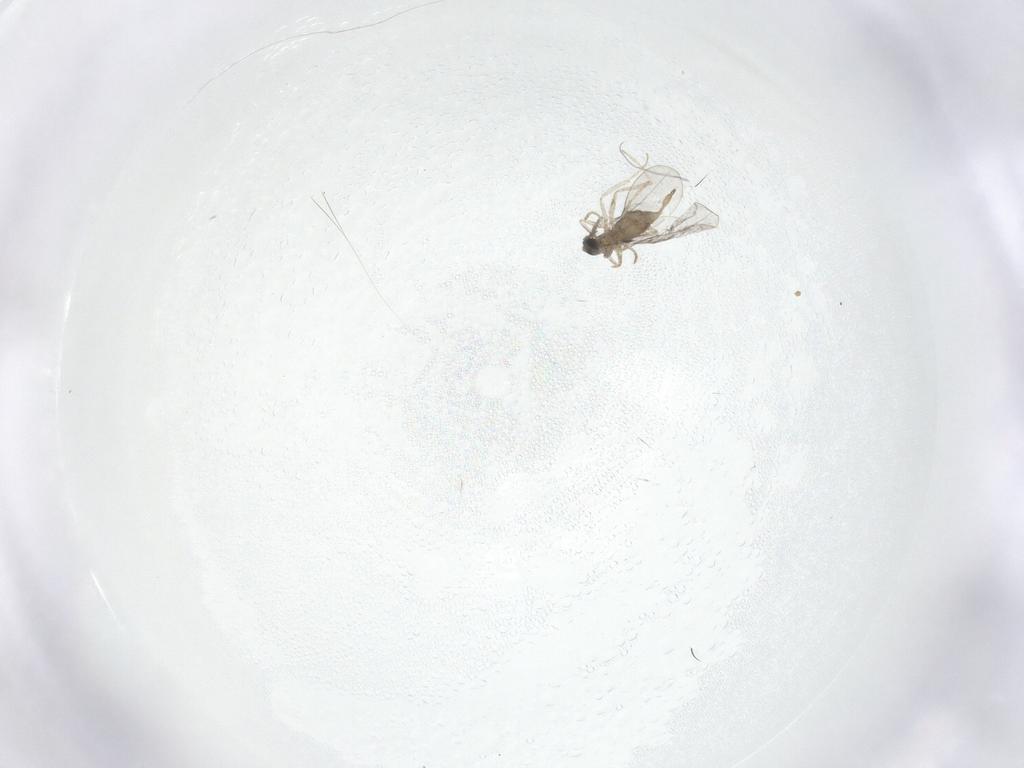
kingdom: Animalia
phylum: Arthropoda
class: Insecta
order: Diptera
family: Cecidomyiidae
